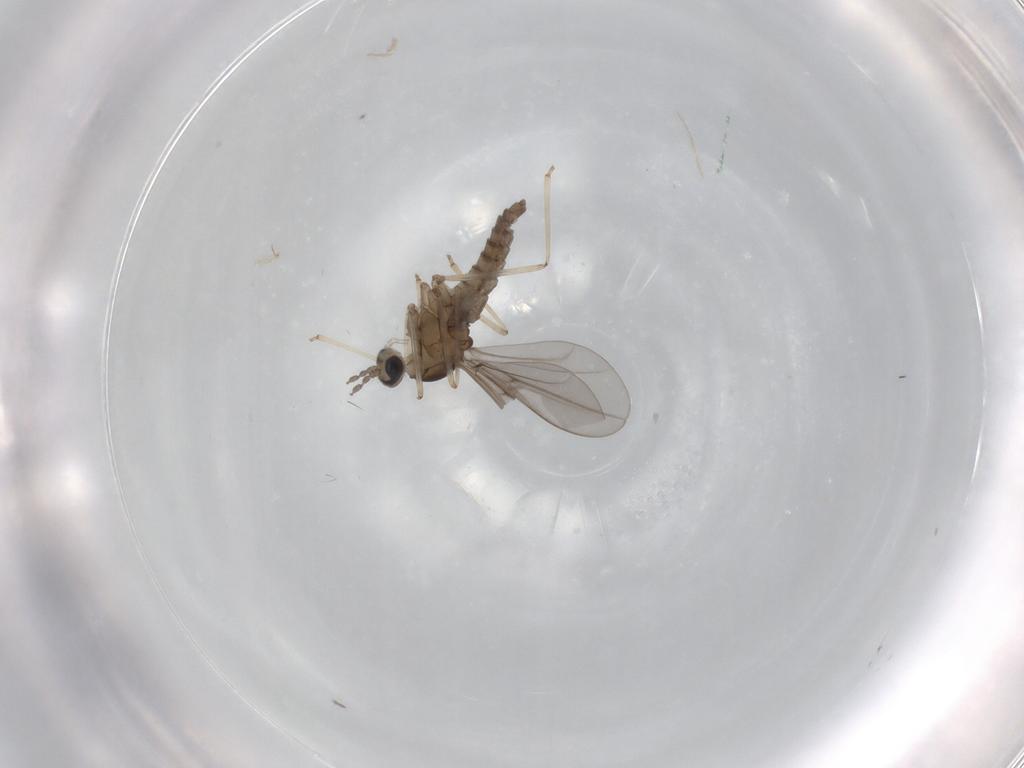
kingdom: Animalia
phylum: Arthropoda
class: Insecta
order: Diptera
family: Cecidomyiidae
